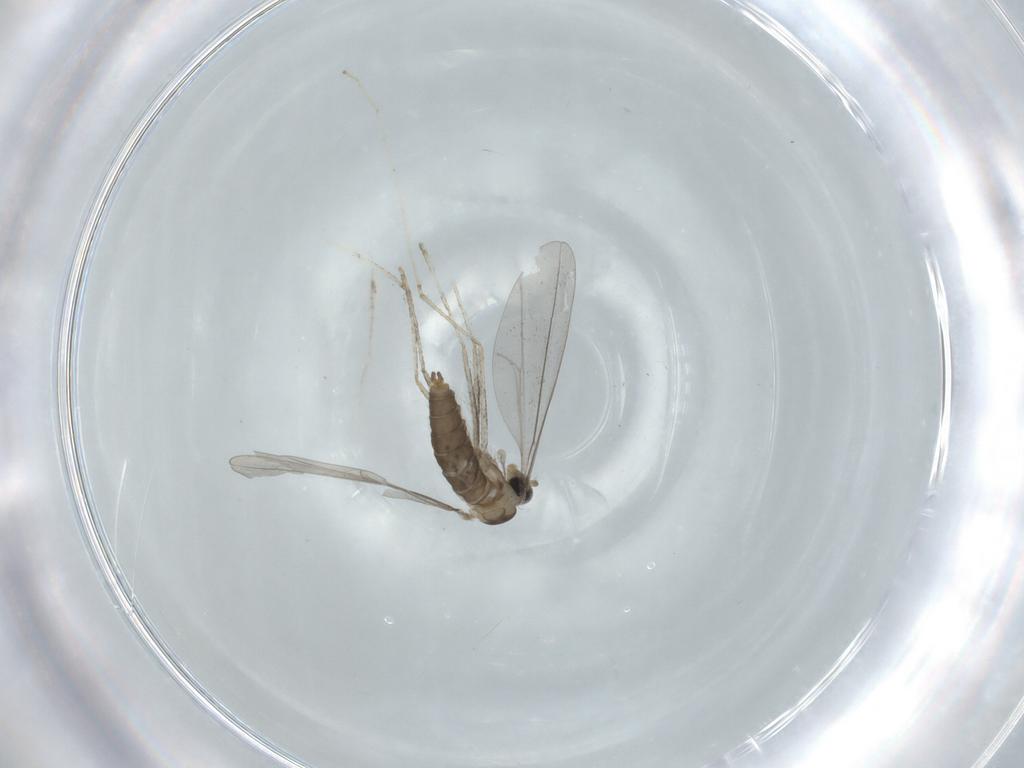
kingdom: Animalia
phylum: Arthropoda
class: Insecta
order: Diptera
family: Cecidomyiidae
